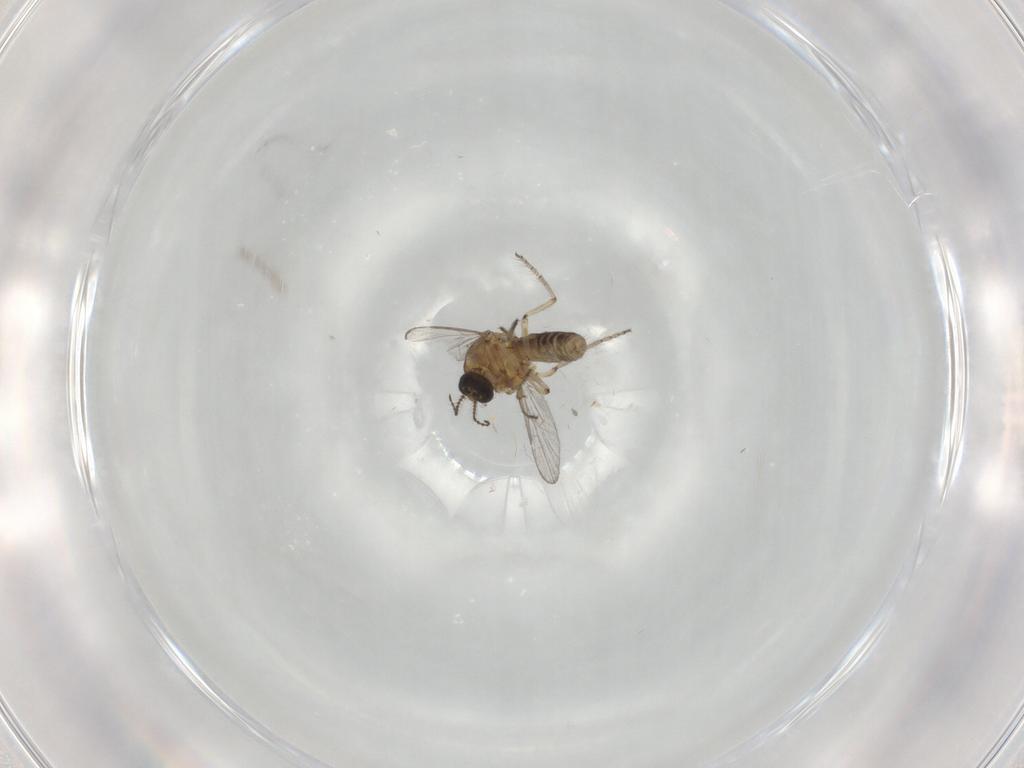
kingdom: Animalia
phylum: Arthropoda
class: Insecta
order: Diptera
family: Ceratopogonidae
